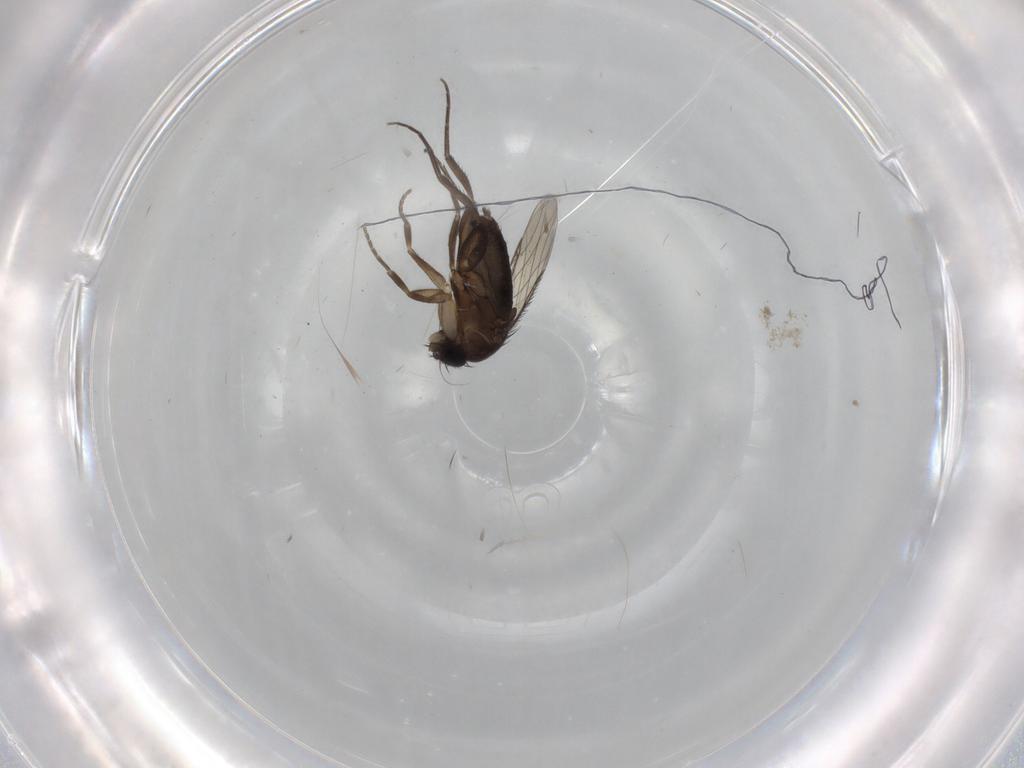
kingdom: Animalia
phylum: Arthropoda
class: Insecta
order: Diptera
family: Phoridae
